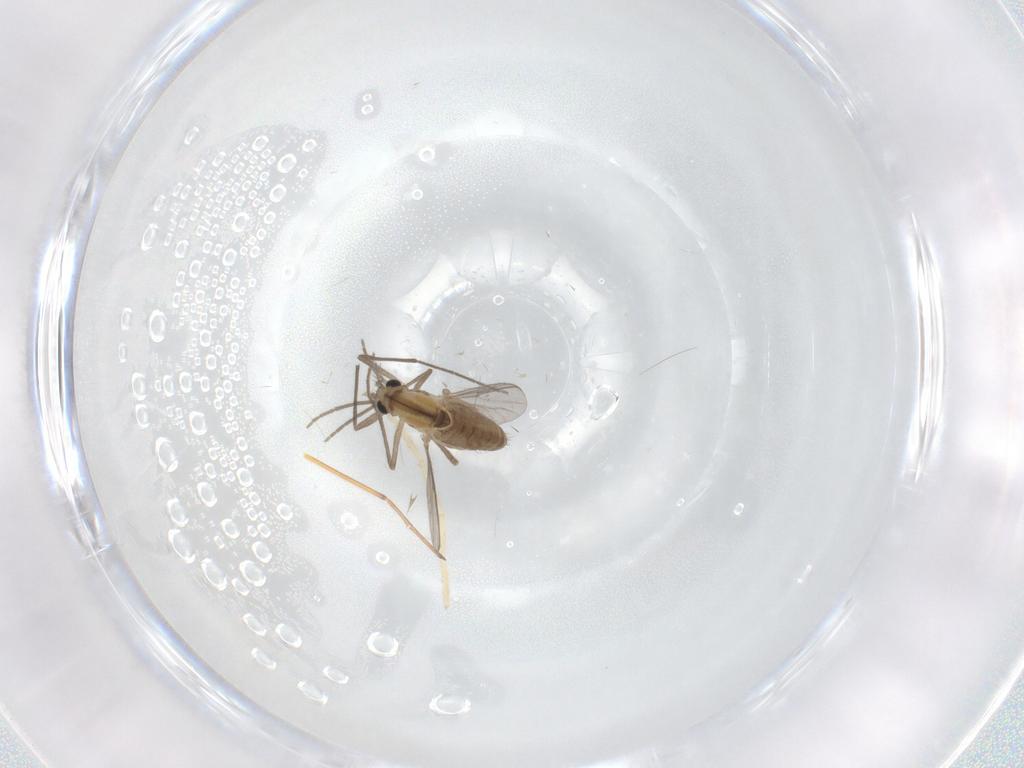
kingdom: Animalia
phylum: Arthropoda
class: Insecta
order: Diptera
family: Chironomidae
